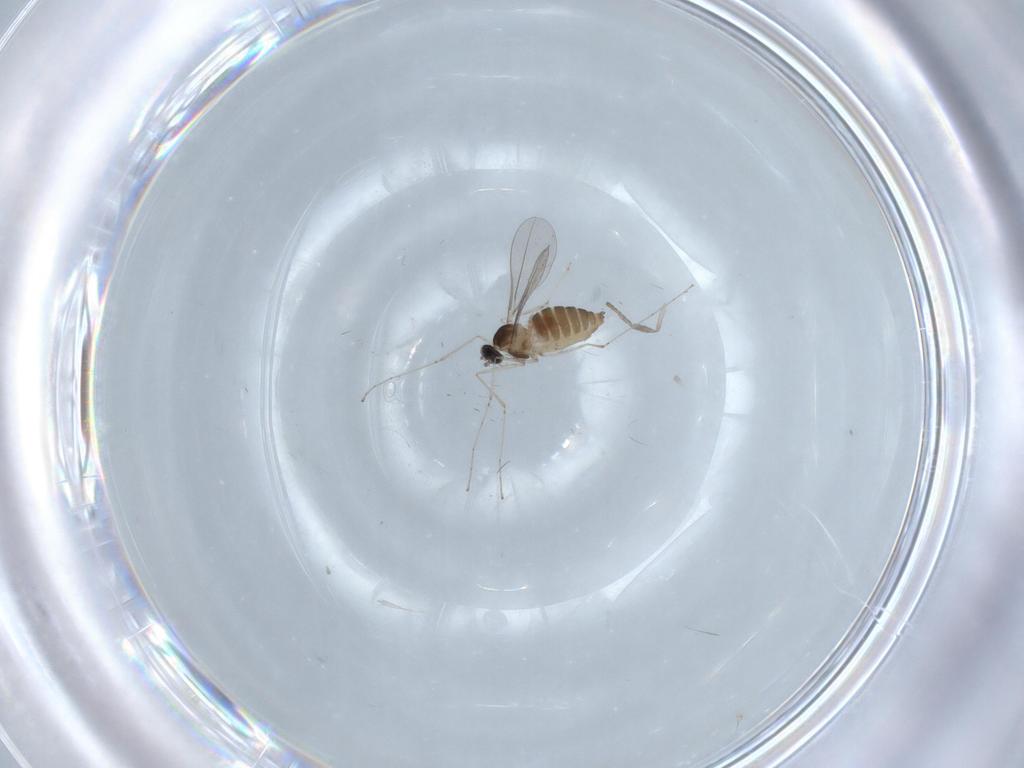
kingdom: Animalia
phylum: Arthropoda
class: Insecta
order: Diptera
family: Cecidomyiidae
